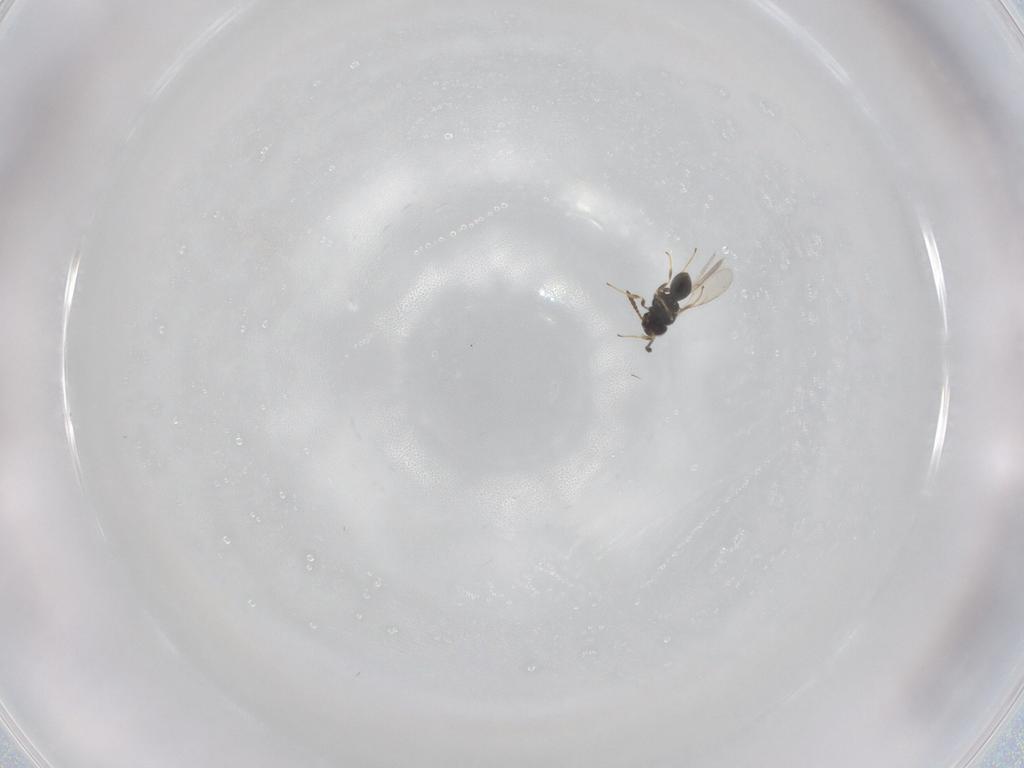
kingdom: Animalia
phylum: Arthropoda
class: Insecta
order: Hymenoptera
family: Scelionidae
